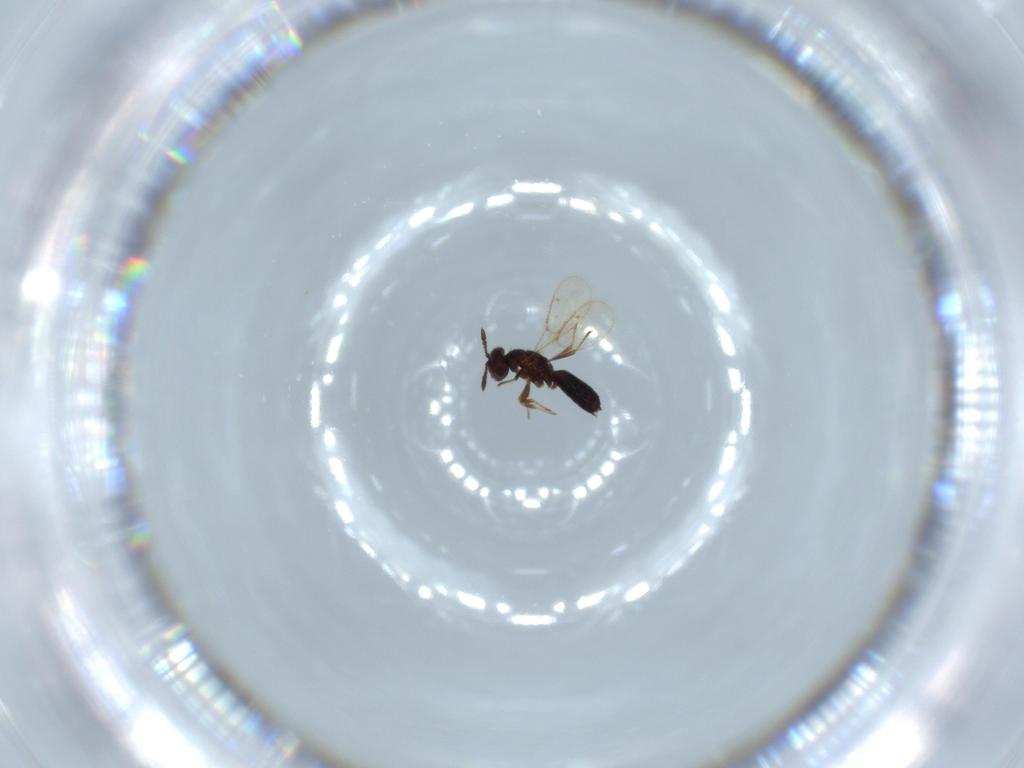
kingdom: Animalia
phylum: Arthropoda
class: Insecta
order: Hymenoptera
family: Pirenidae
